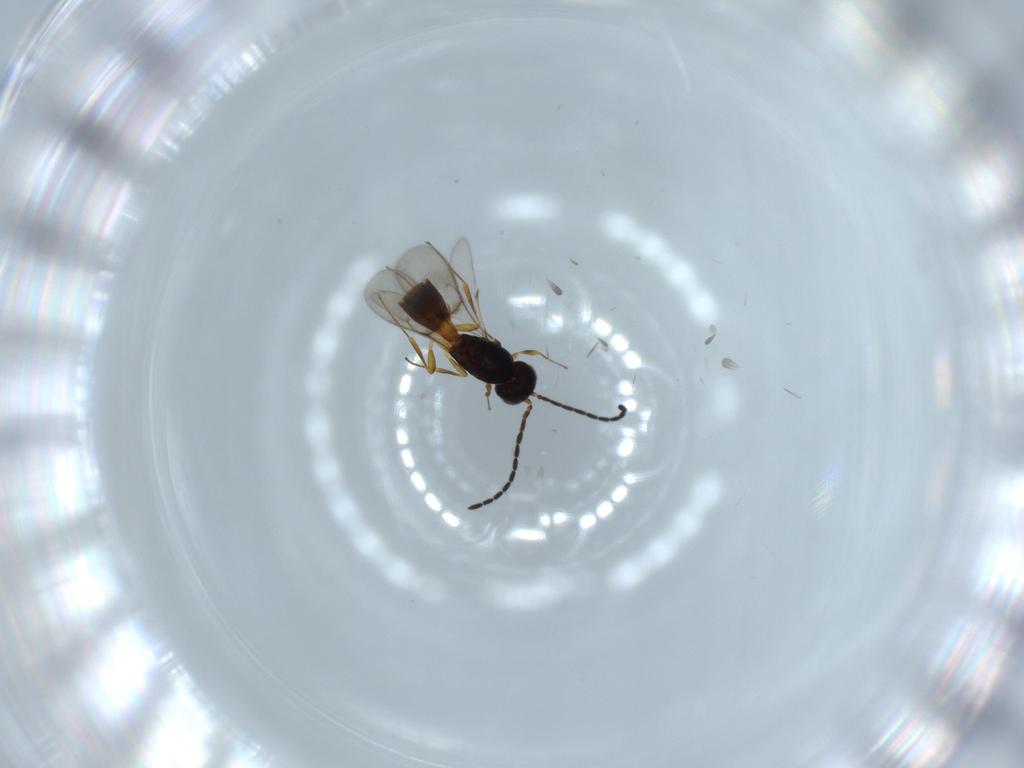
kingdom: Animalia
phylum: Arthropoda
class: Insecta
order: Hymenoptera
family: Scelionidae
